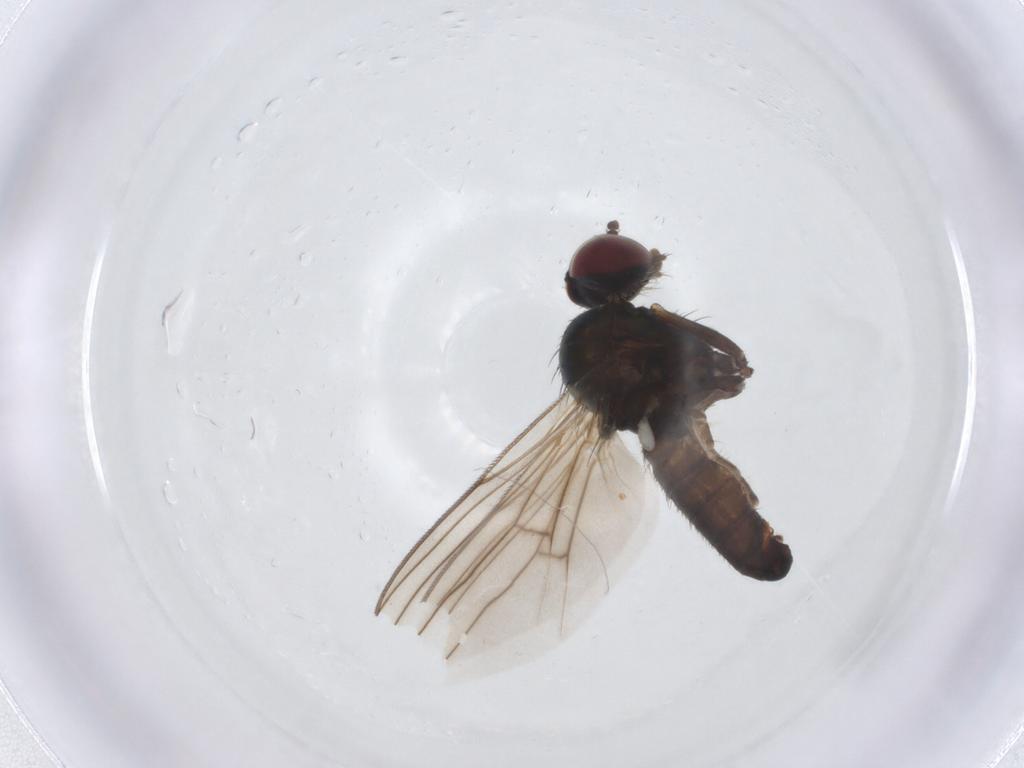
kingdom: Animalia
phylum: Arthropoda
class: Insecta
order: Diptera
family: Dolichopodidae
